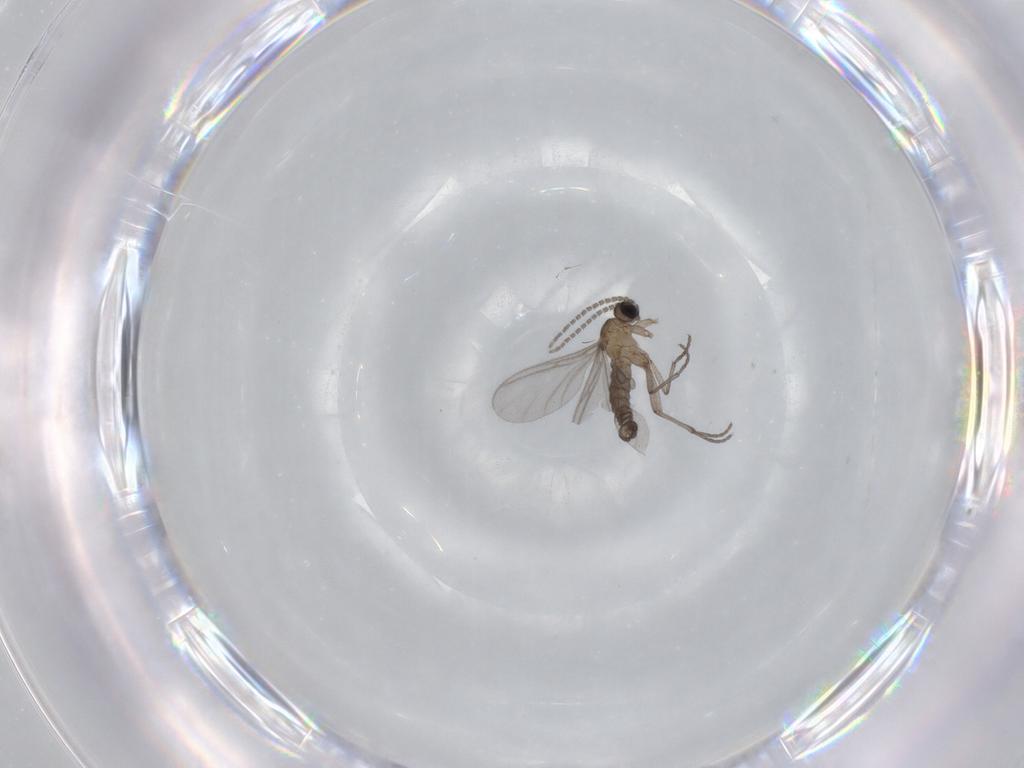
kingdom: Animalia
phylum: Arthropoda
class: Insecta
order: Diptera
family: Sciaridae
